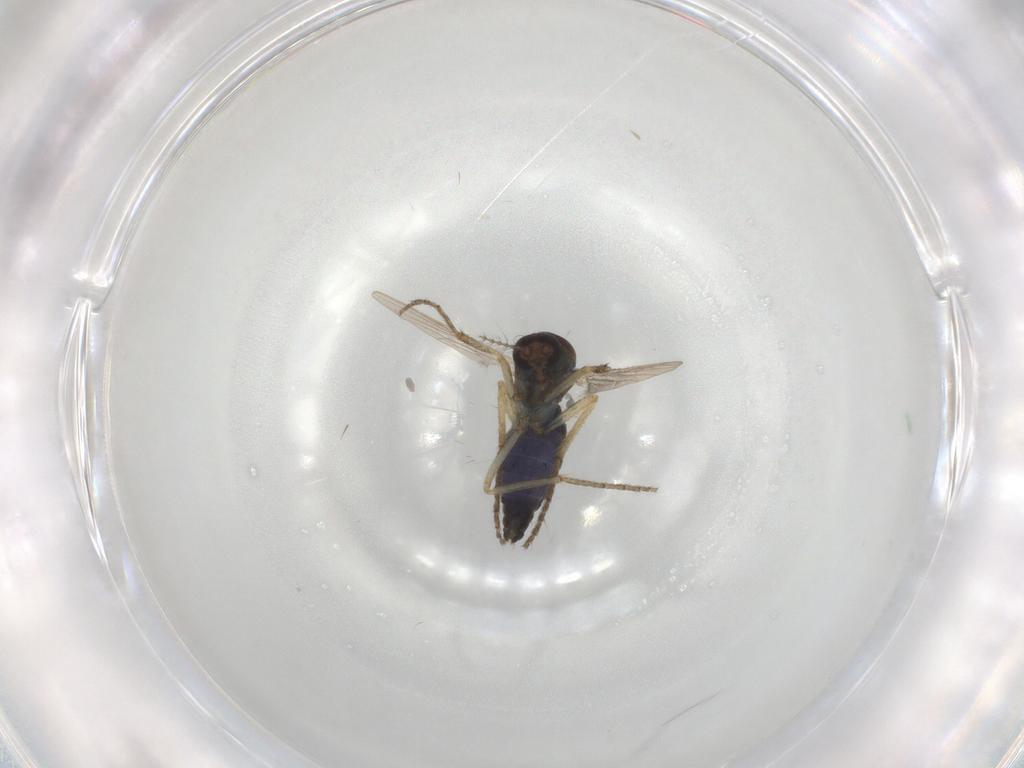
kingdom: Animalia
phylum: Arthropoda
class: Insecta
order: Diptera
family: Ceratopogonidae
